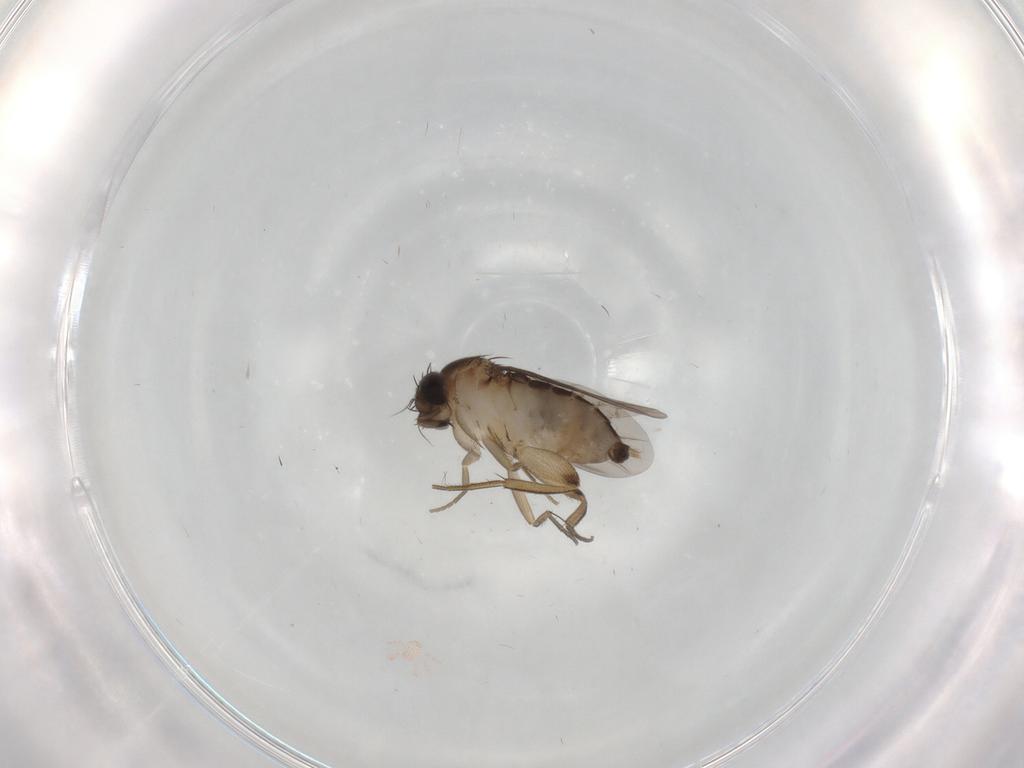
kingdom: Animalia
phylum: Arthropoda
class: Insecta
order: Diptera
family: Phoridae
